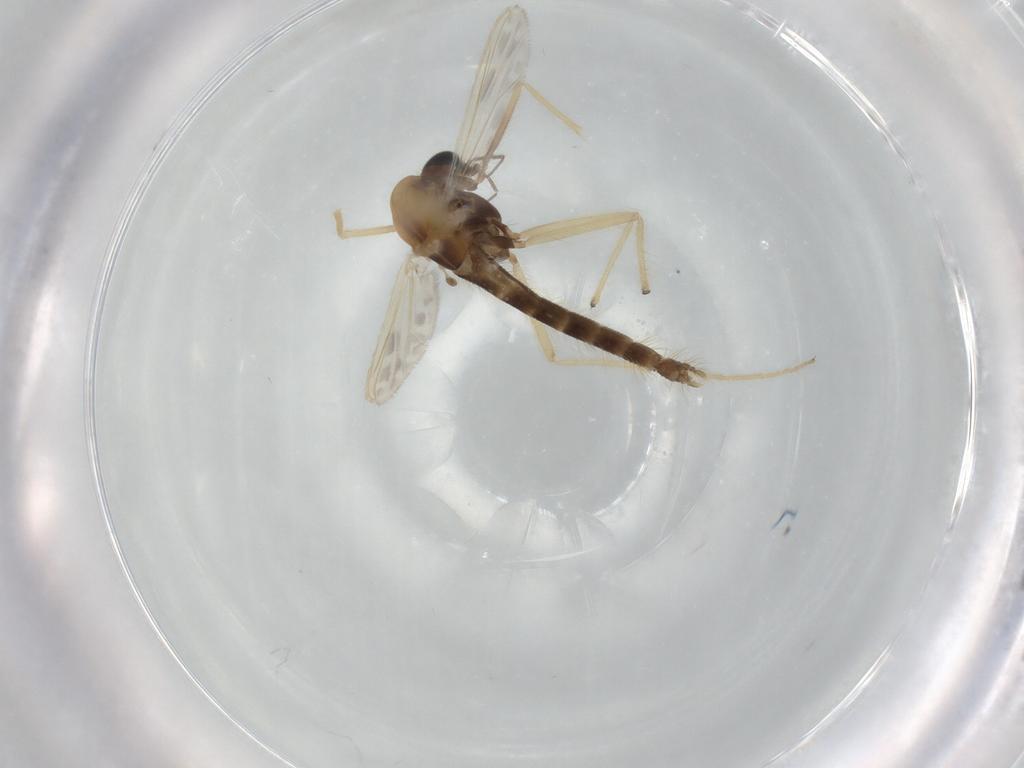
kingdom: Animalia
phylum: Arthropoda
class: Insecta
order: Diptera
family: Chironomidae
